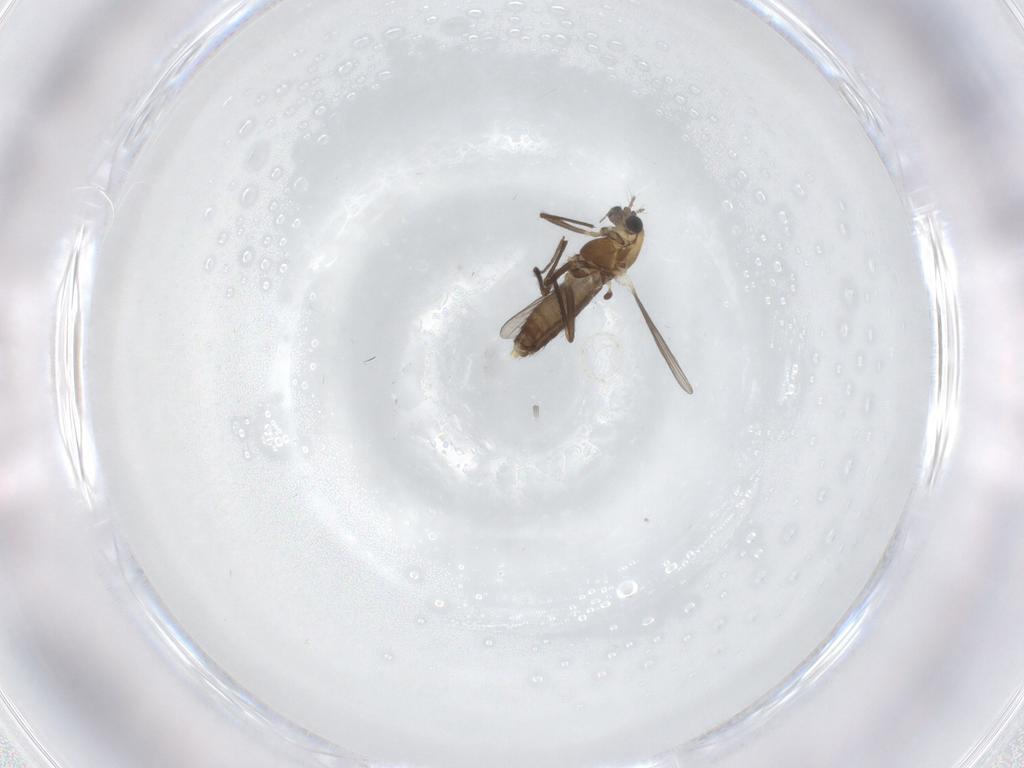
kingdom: Animalia
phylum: Arthropoda
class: Insecta
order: Diptera
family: Chironomidae
